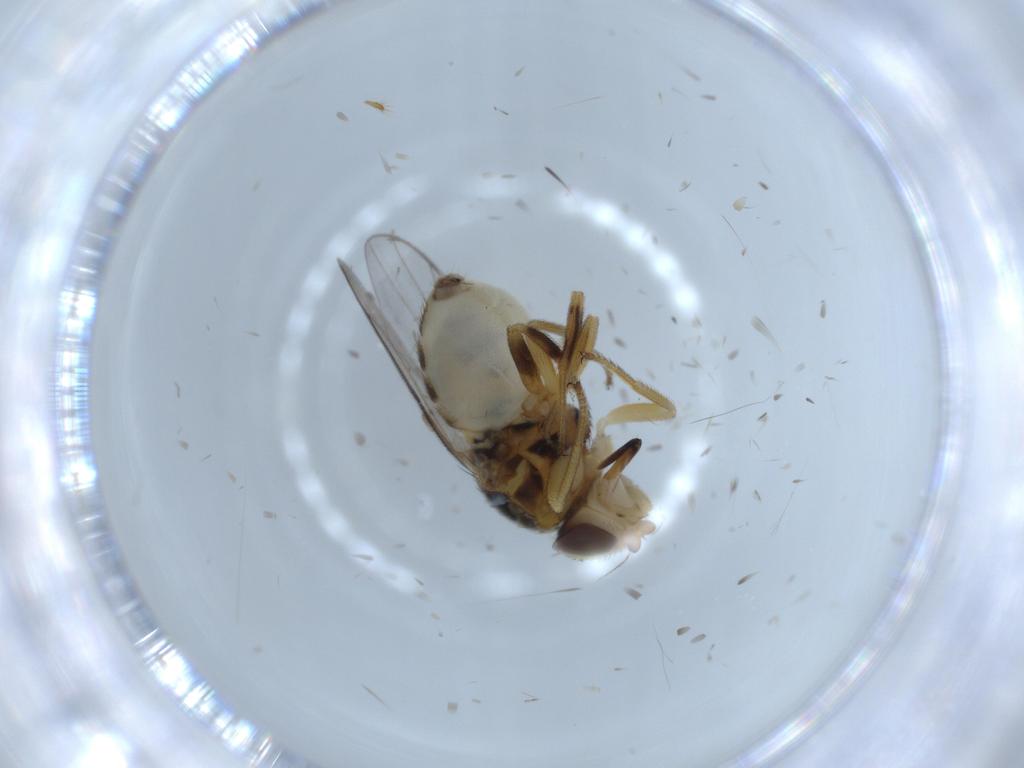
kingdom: Animalia
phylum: Arthropoda
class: Insecta
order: Diptera
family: Chloropidae
